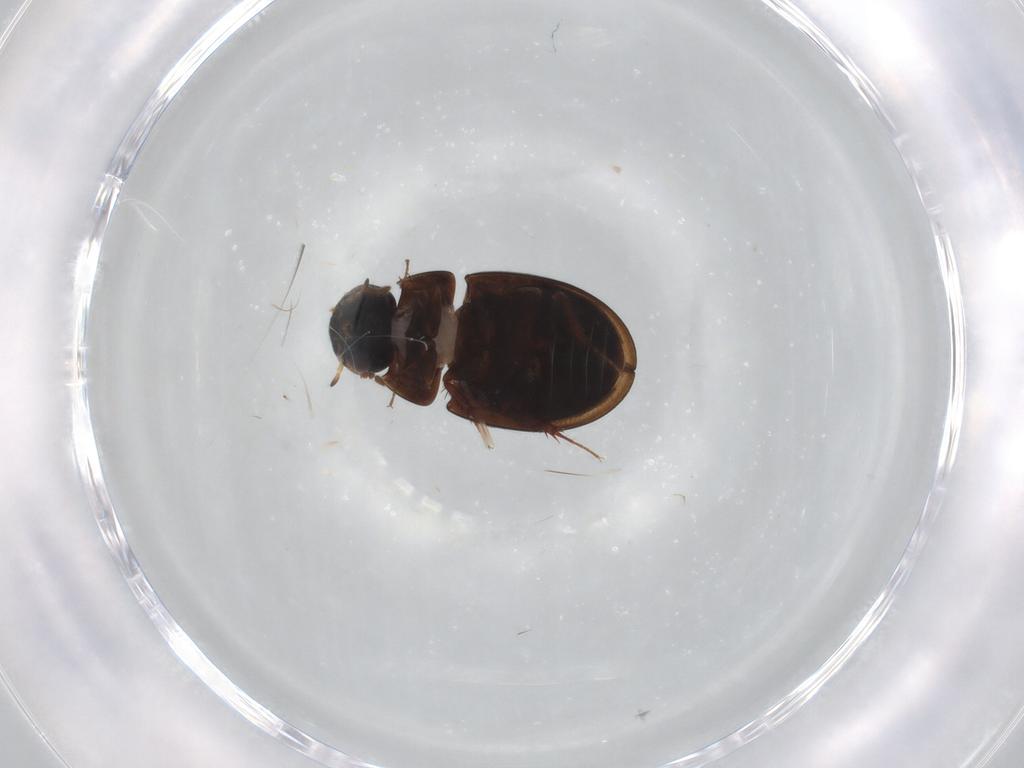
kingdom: Animalia
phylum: Arthropoda
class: Insecta
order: Coleoptera
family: Hydrophilidae
